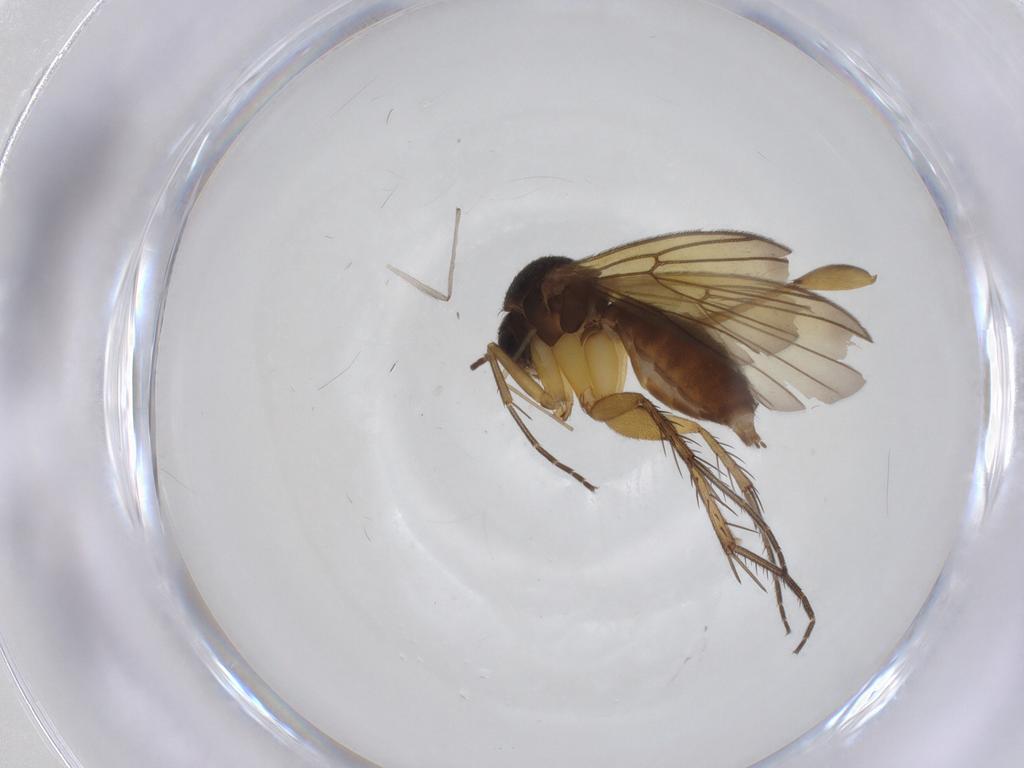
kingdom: Animalia
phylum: Arthropoda
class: Insecta
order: Diptera
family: Mycetophilidae
